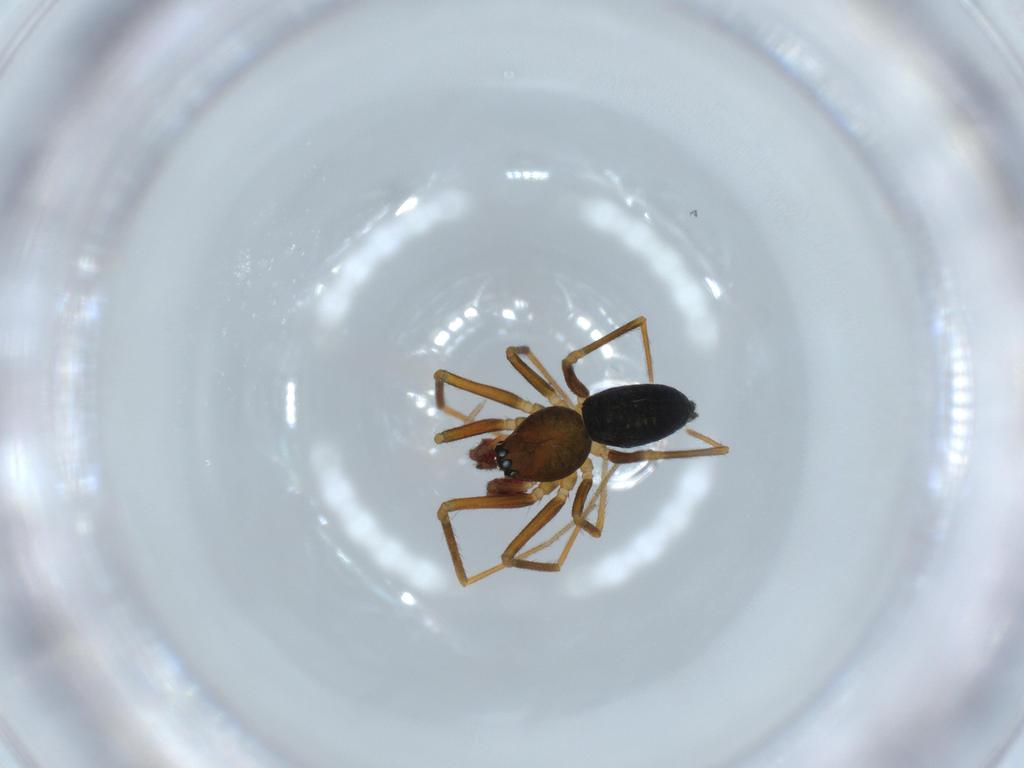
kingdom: Animalia
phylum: Arthropoda
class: Arachnida
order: Araneae
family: Linyphiidae
